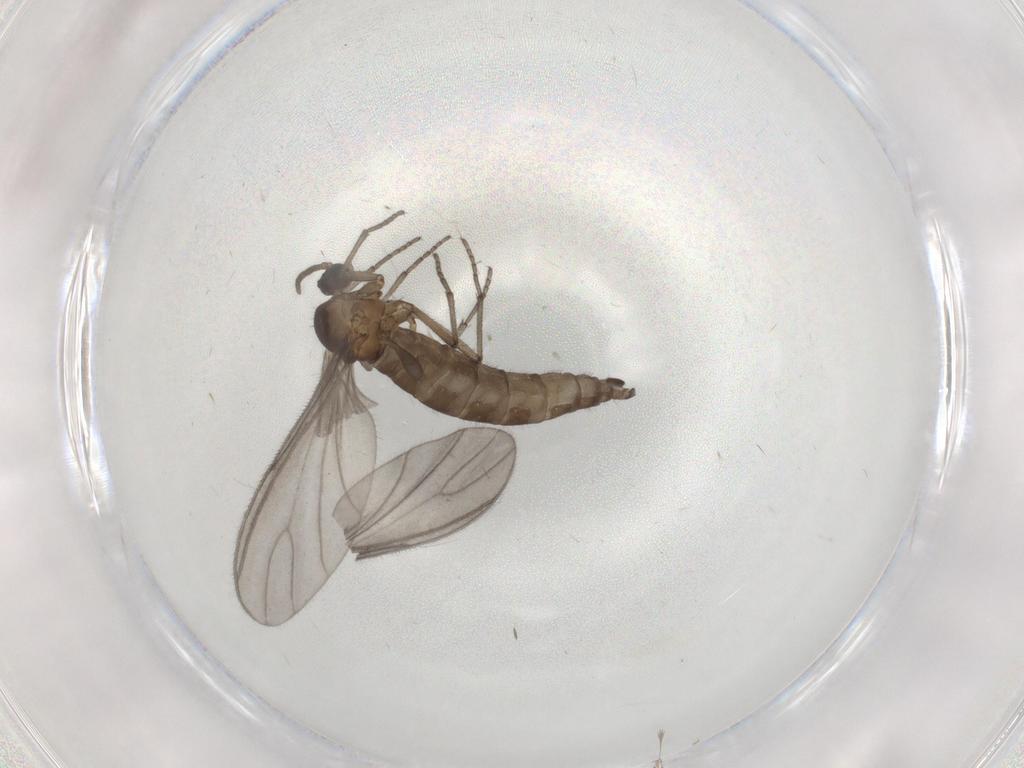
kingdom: Animalia
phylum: Arthropoda
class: Insecta
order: Diptera
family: Sciaridae
